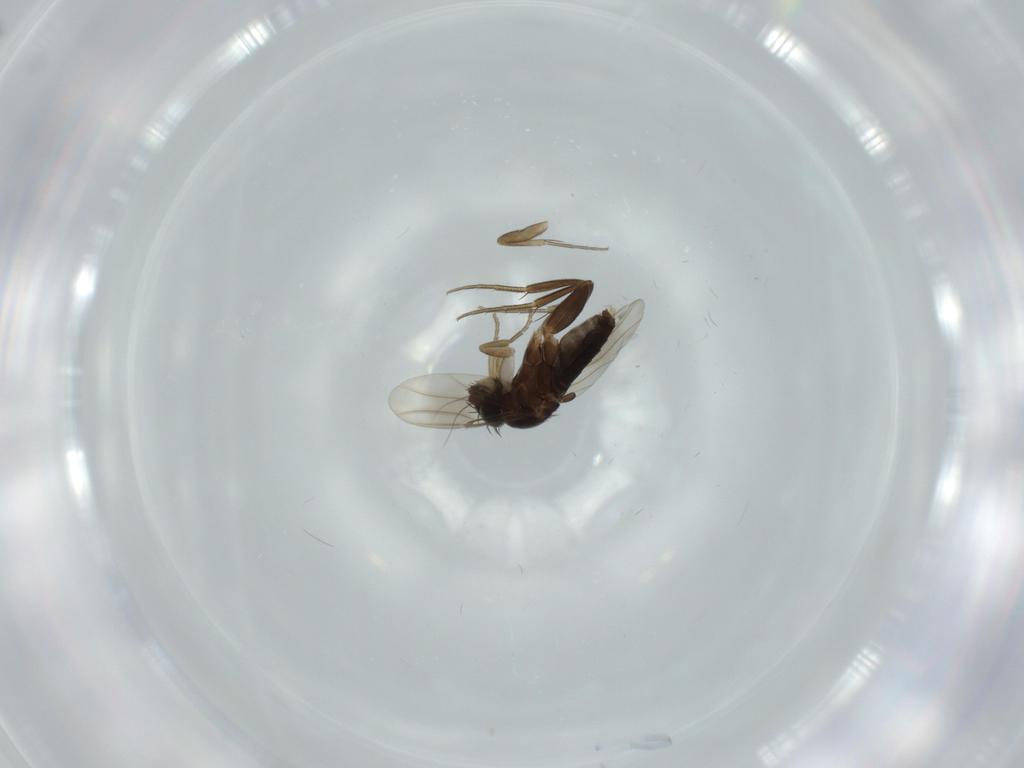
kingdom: Animalia
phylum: Arthropoda
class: Insecta
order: Diptera
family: Phoridae
